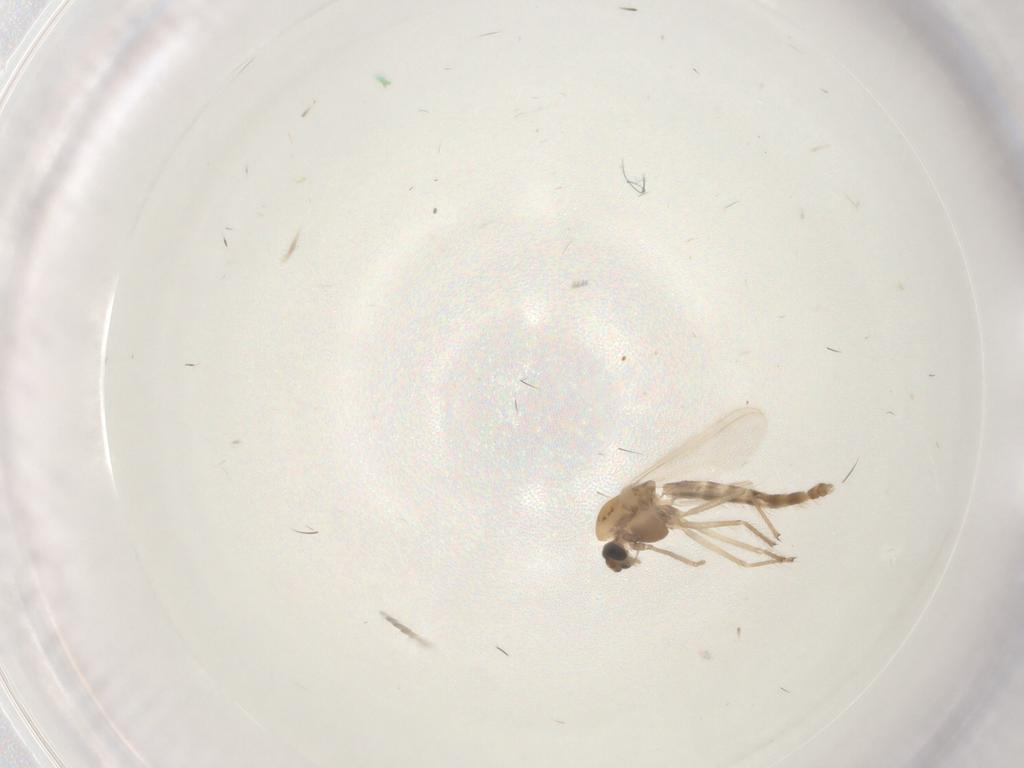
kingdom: Animalia
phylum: Arthropoda
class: Insecta
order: Diptera
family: Chironomidae
